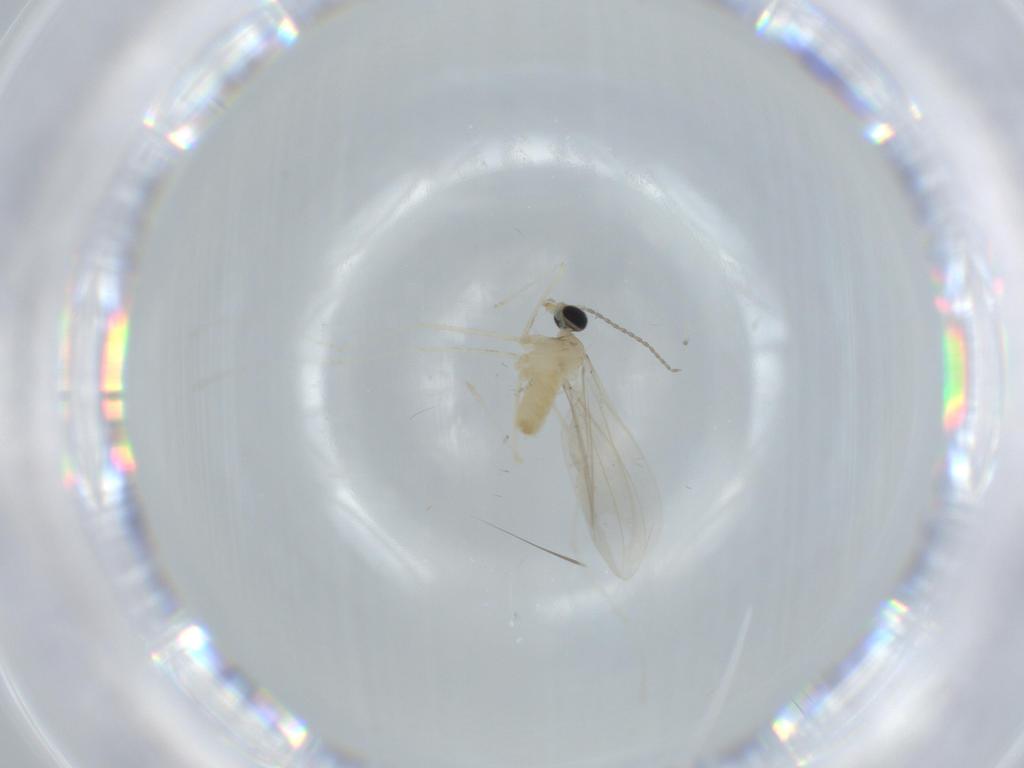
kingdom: Animalia
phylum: Arthropoda
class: Insecta
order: Diptera
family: Cecidomyiidae
